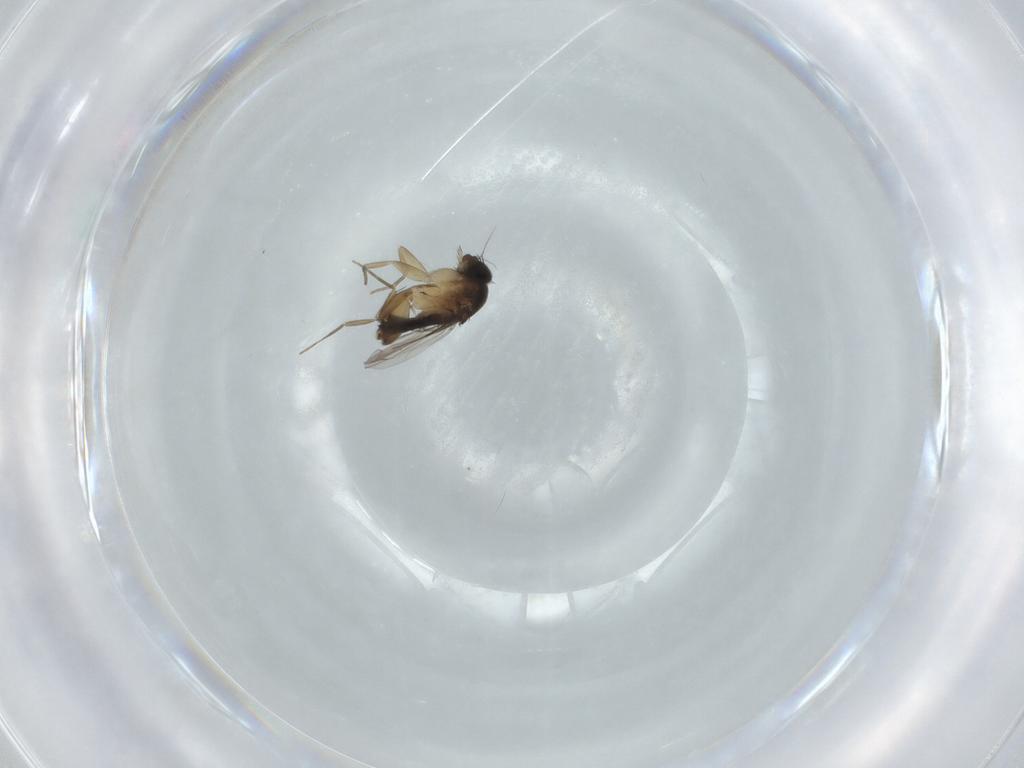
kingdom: Animalia
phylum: Arthropoda
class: Insecta
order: Diptera
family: Phoridae
